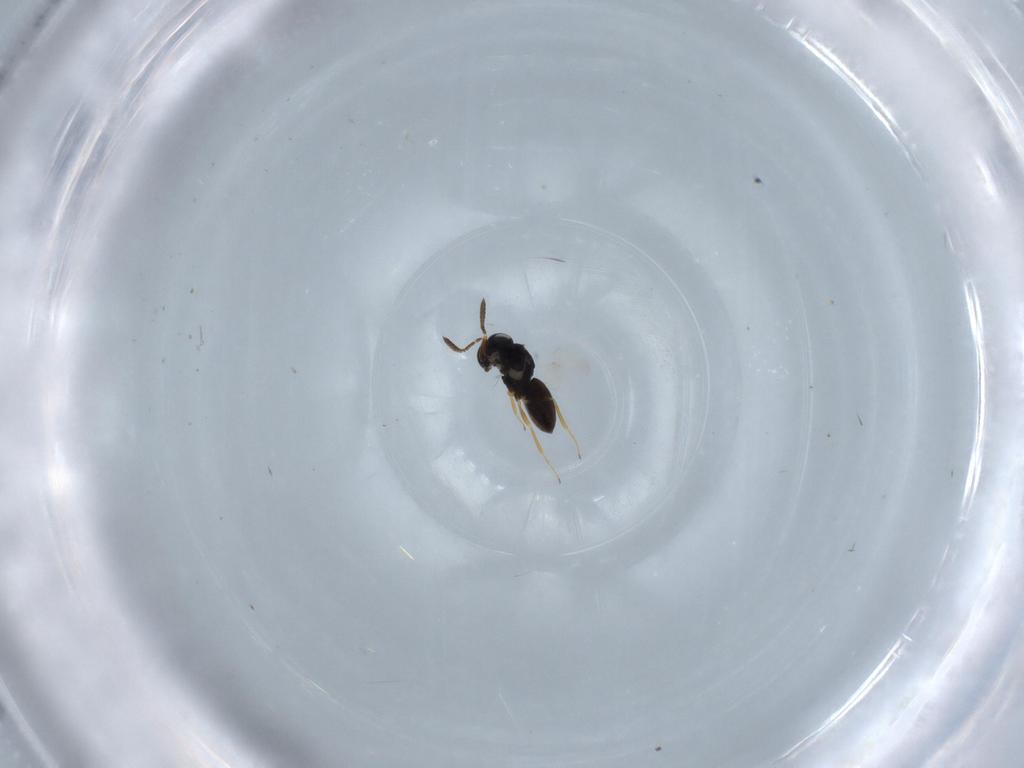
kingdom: Animalia
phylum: Arthropoda
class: Insecta
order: Hymenoptera
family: Scelionidae
